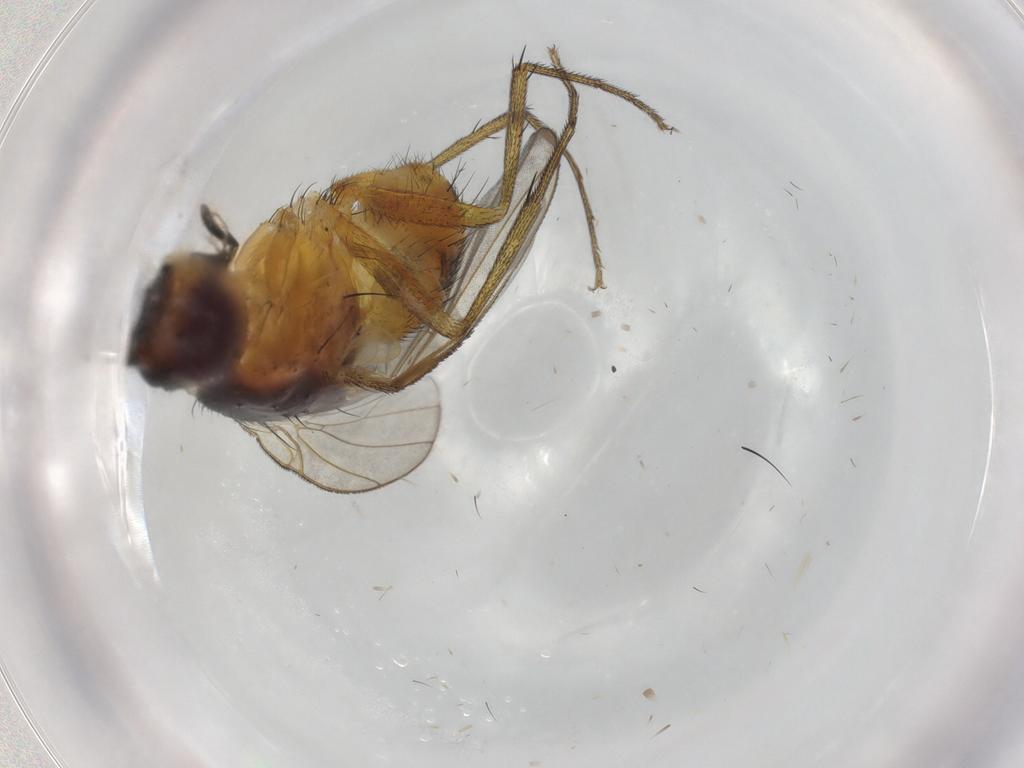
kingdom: Animalia
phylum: Arthropoda
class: Insecta
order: Diptera
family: Muscidae
